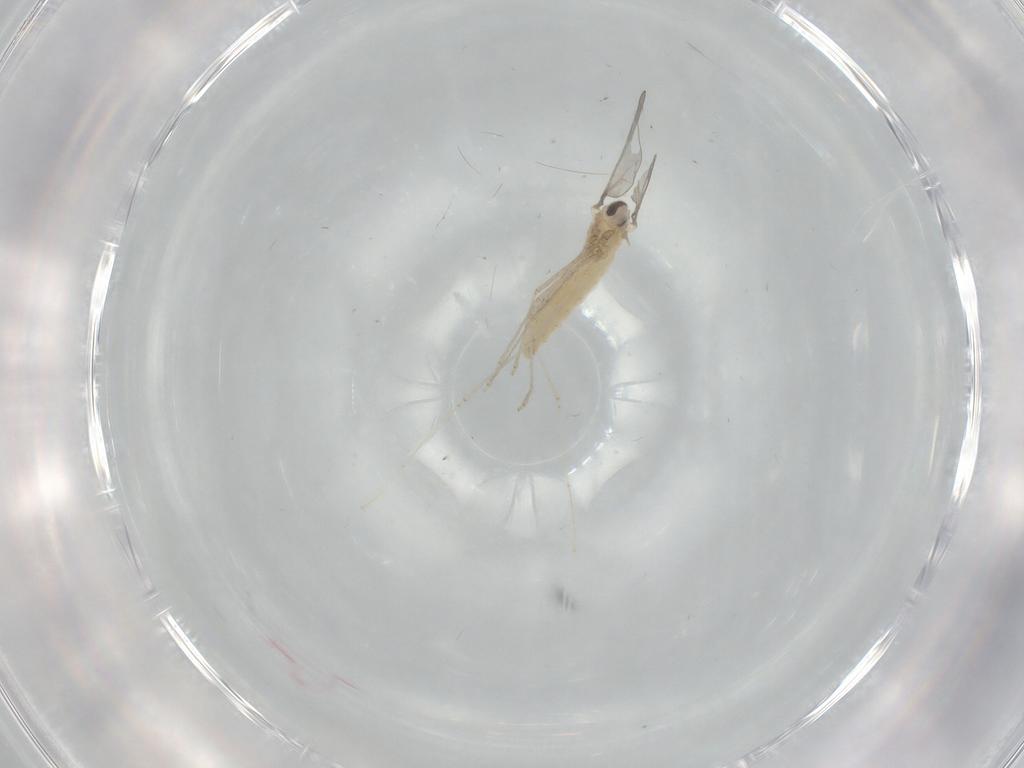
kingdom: Animalia
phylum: Arthropoda
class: Insecta
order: Diptera
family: Cecidomyiidae
